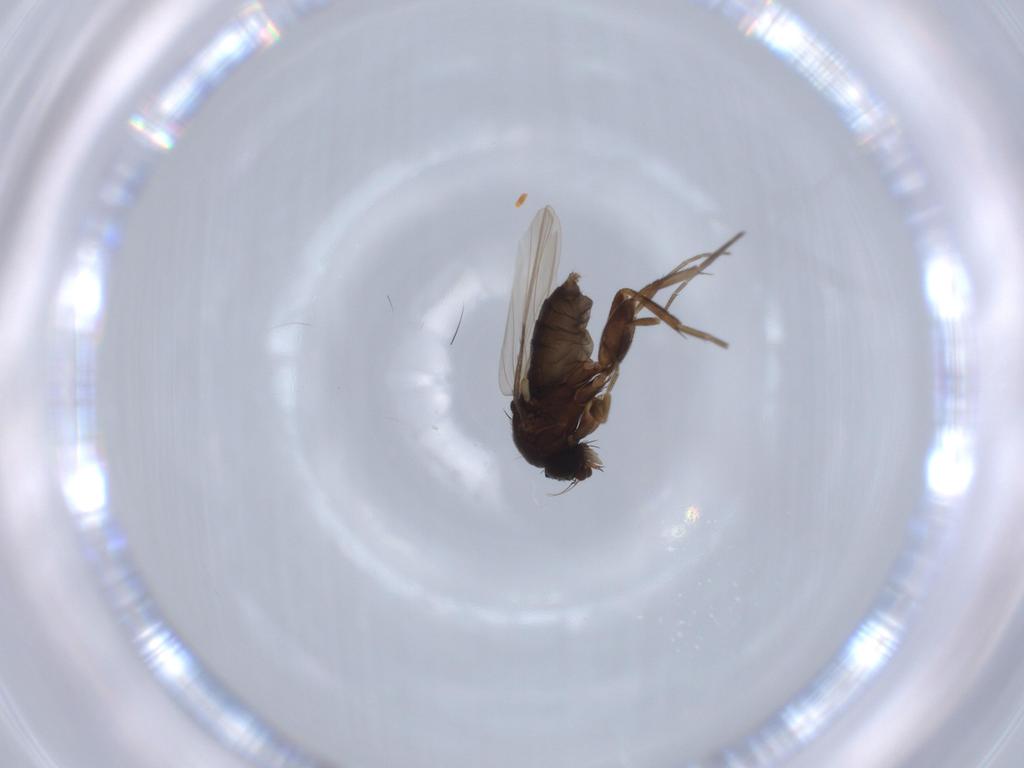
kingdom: Animalia
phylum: Arthropoda
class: Insecta
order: Diptera
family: Phoridae
